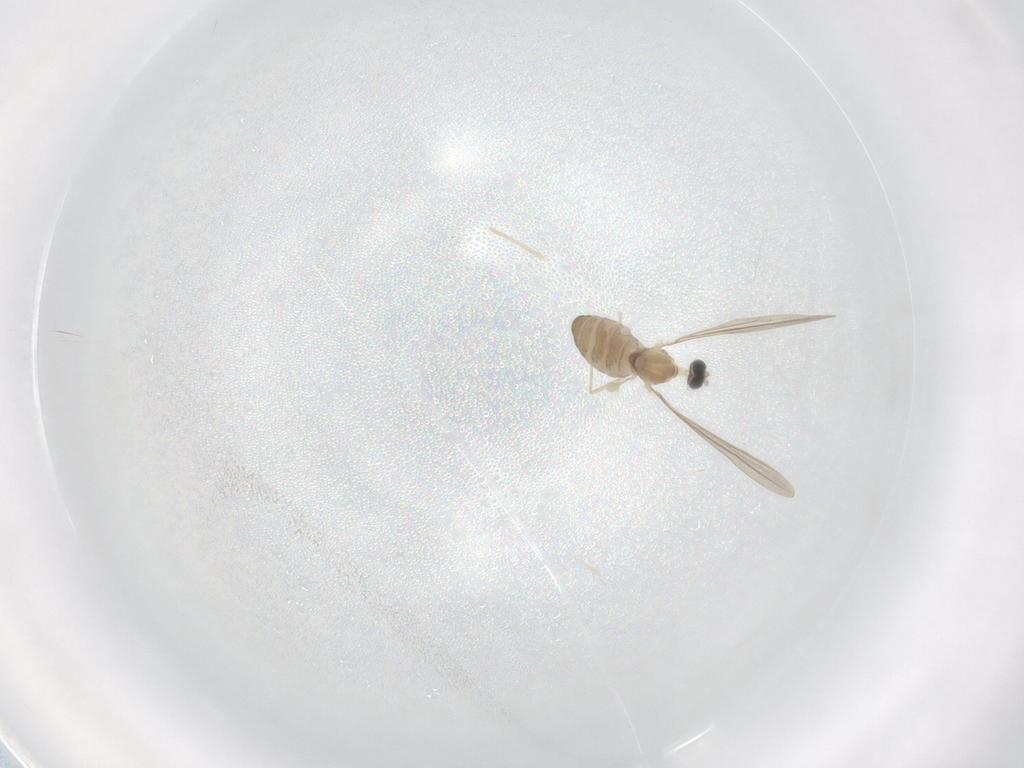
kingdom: Animalia
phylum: Arthropoda
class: Insecta
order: Diptera
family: Cecidomyiidae
